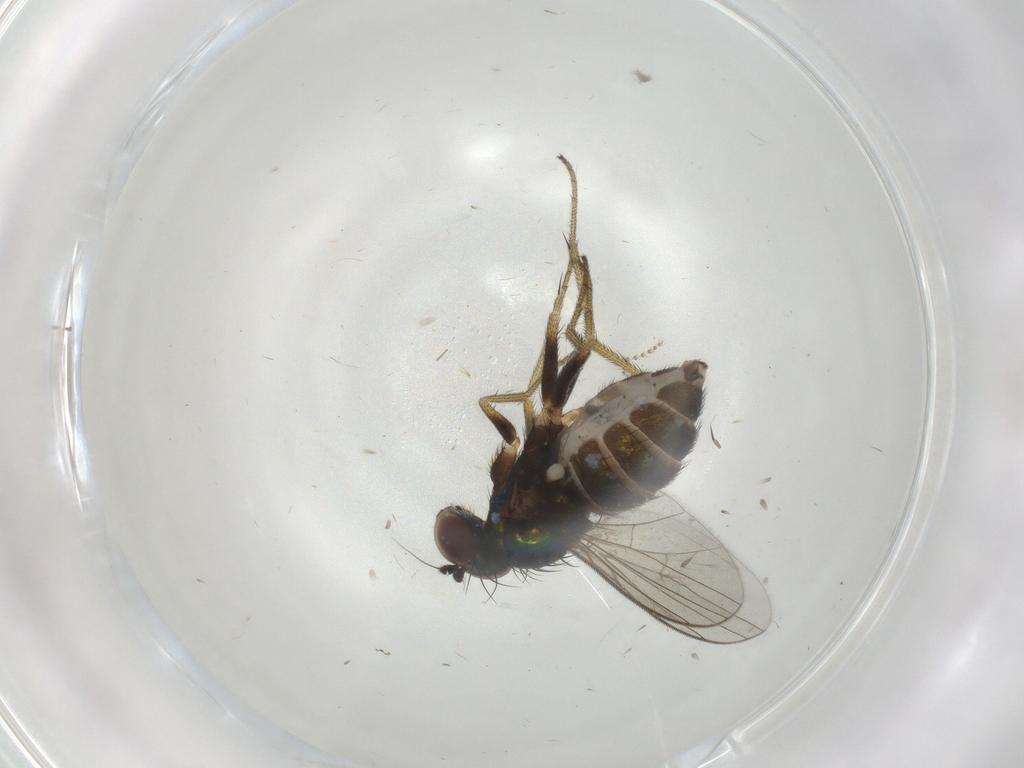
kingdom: Animalia
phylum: Arthropoda
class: Insecta
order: Diptera
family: Dolichopodidae
